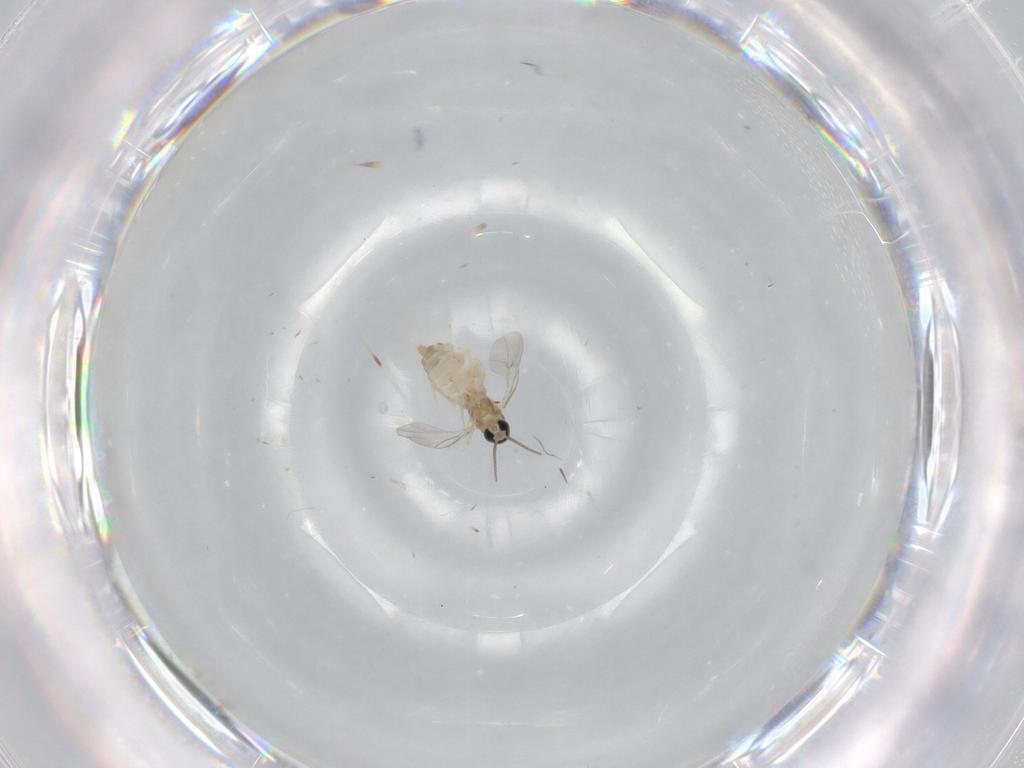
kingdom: Animalia
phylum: Arthropoda
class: Insecta
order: Diptera
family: Cecidomyiidae
